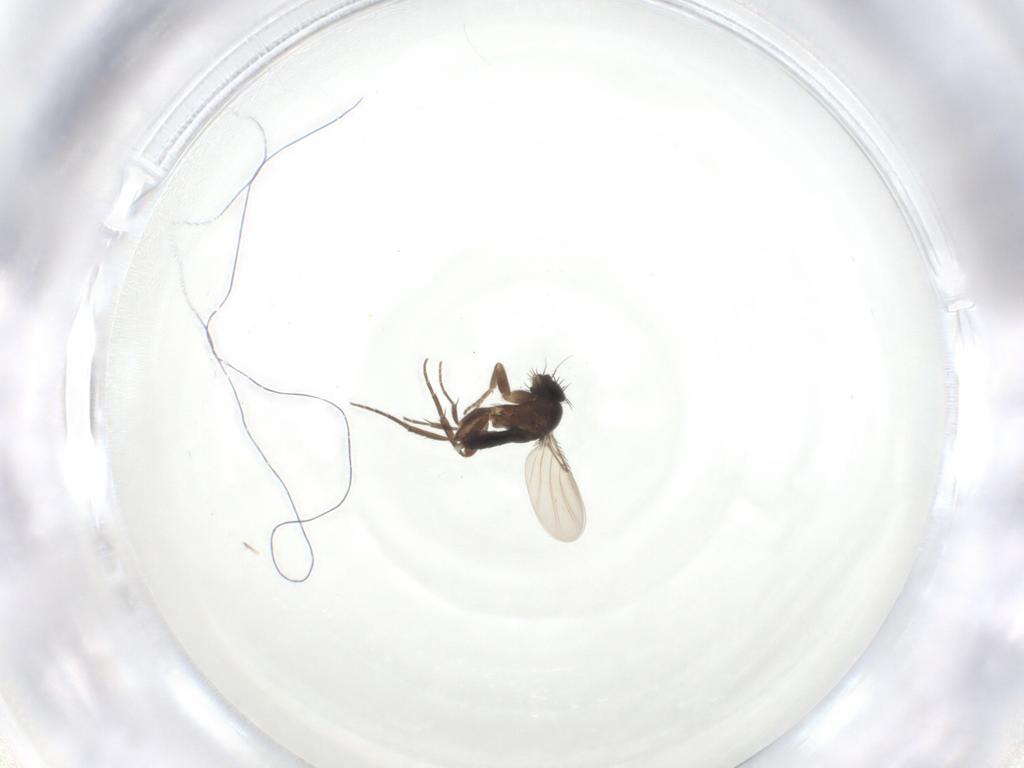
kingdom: Animalia
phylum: Arthropoda
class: Insecta
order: Diptera
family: Phoridae
